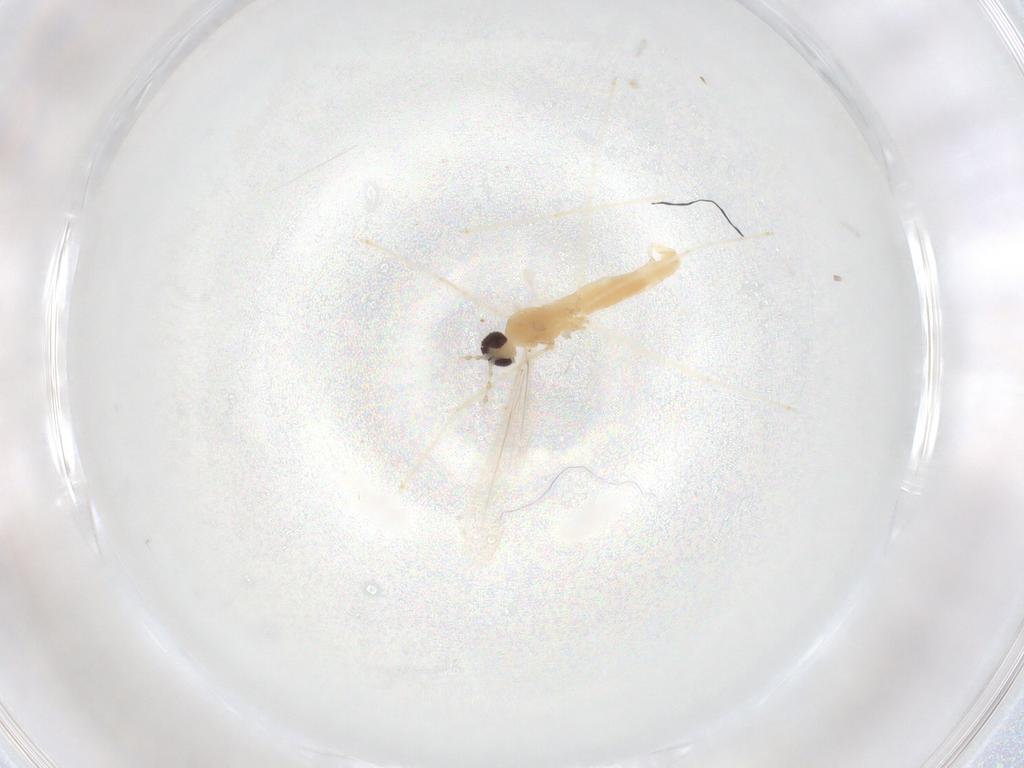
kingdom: Animalia
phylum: Arthropoda
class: Insecta
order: Diptera
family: Cecidomyiidae
